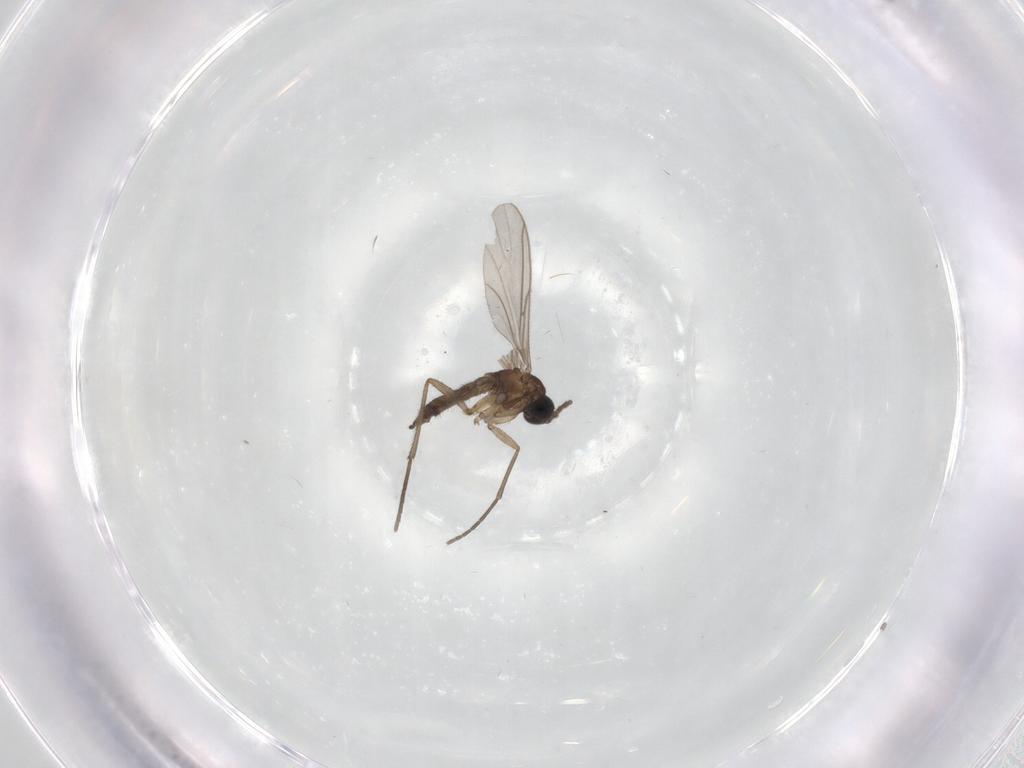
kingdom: Animalia
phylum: Arthropoda
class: Insecta
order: Diptera
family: Sciaridae
